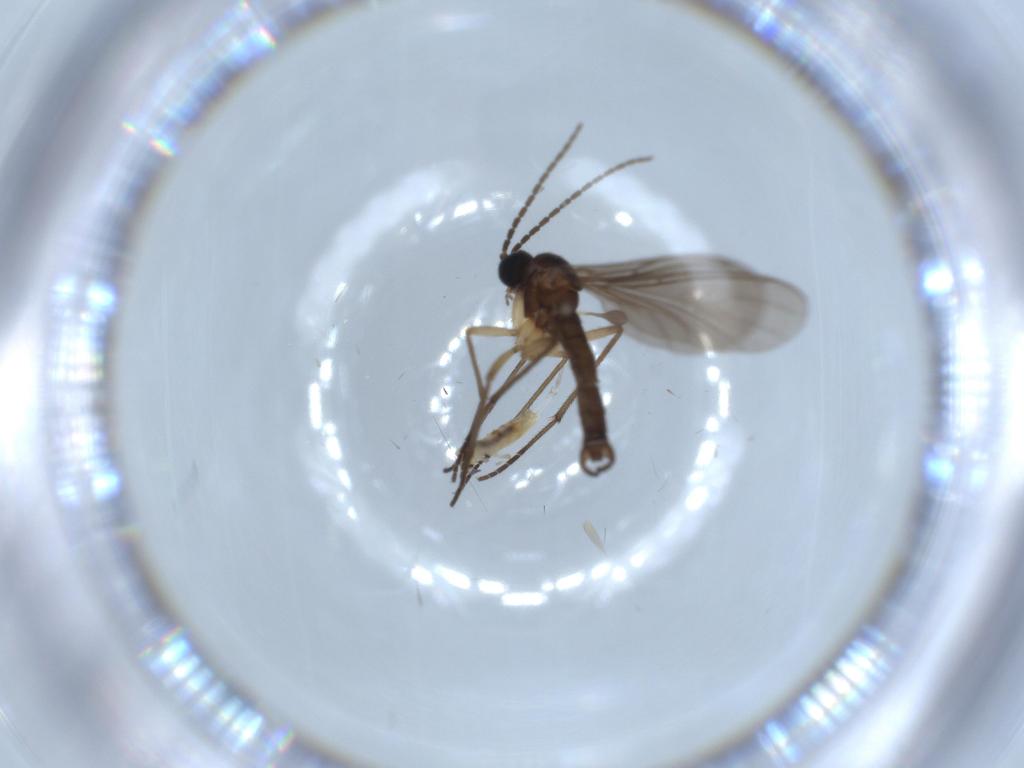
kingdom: Animalia
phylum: Arthropoda
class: Insecta
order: Diptera
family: Sciaridae
